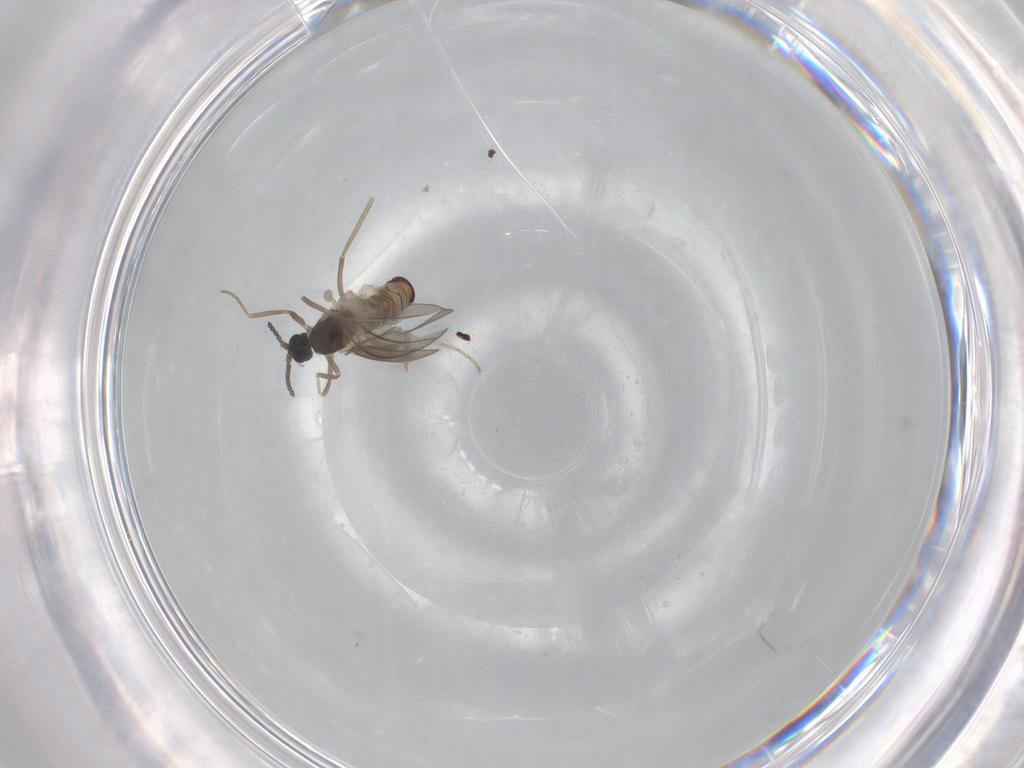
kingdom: Animalia
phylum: Arthropoda
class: Insecta
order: Diptera
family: Cecidomyiidae
